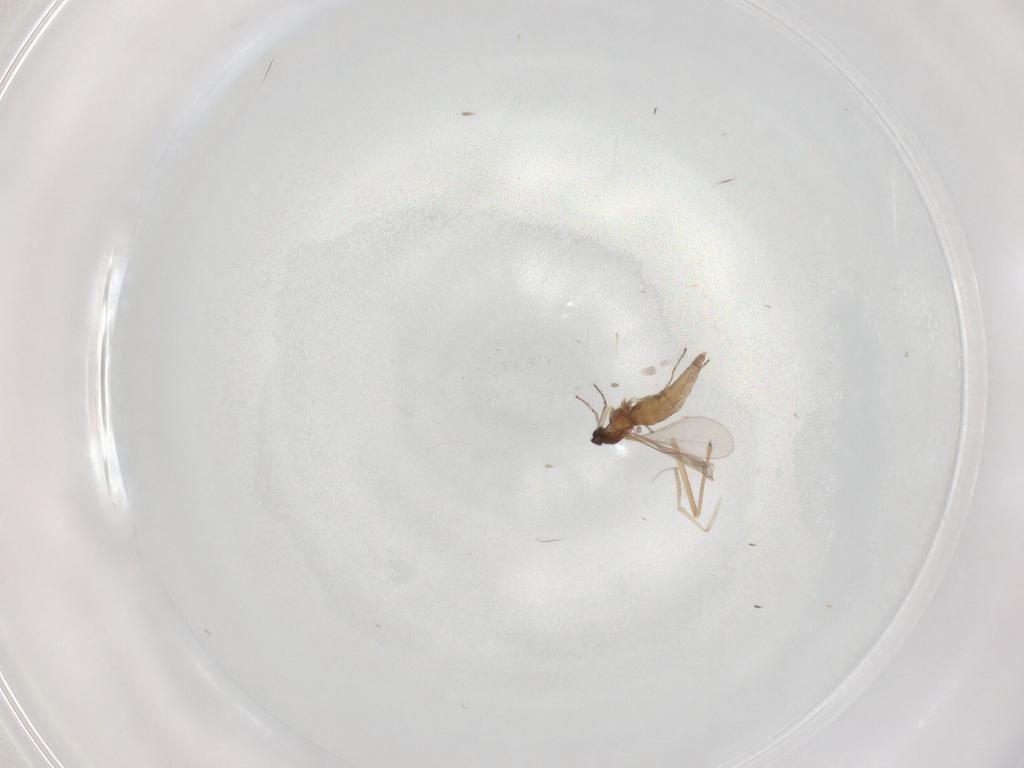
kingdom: Animalia
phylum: Arthropoda
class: Insecta
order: Diptera
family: Cecidomyiidae
